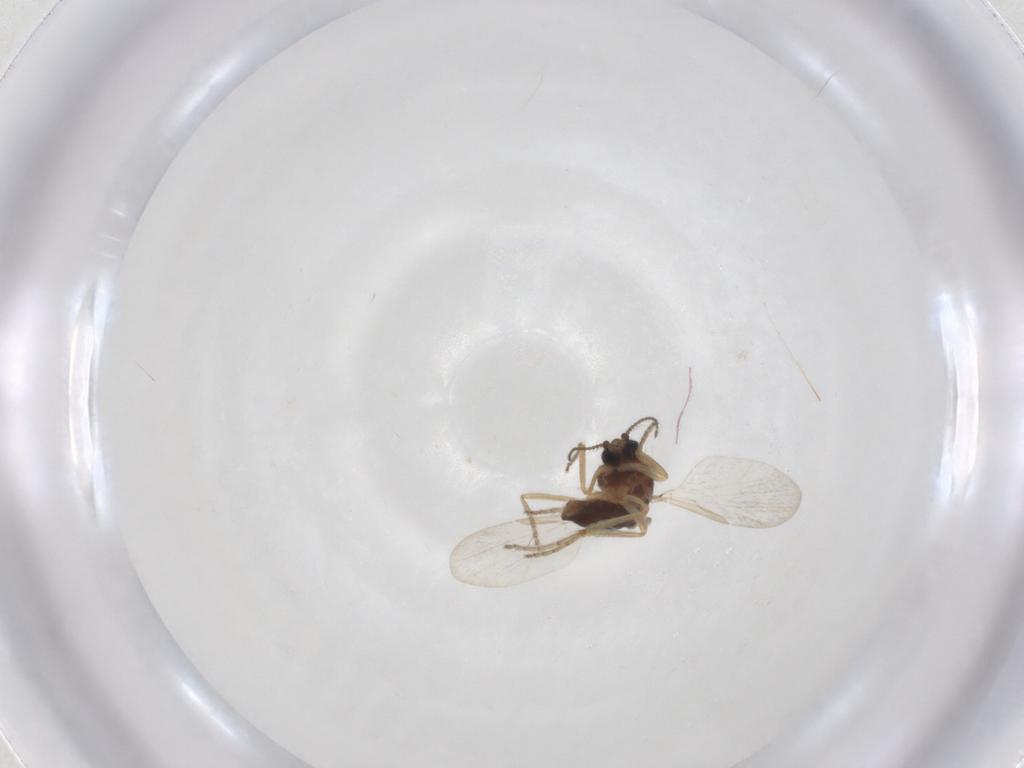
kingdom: Animalia
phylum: Arthropoda
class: Insecta
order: Diptera
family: Ceratopogonidae
